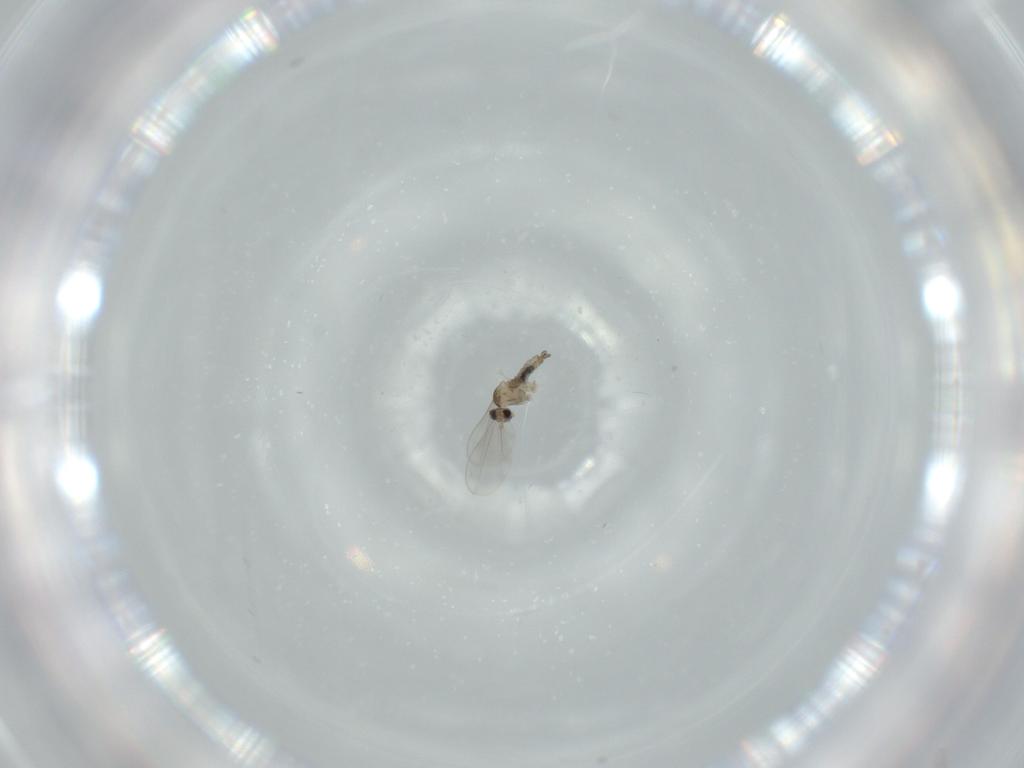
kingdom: Animalia
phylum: Arthropoda
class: Insecta
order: Diptera
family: Cecidomyiidae
